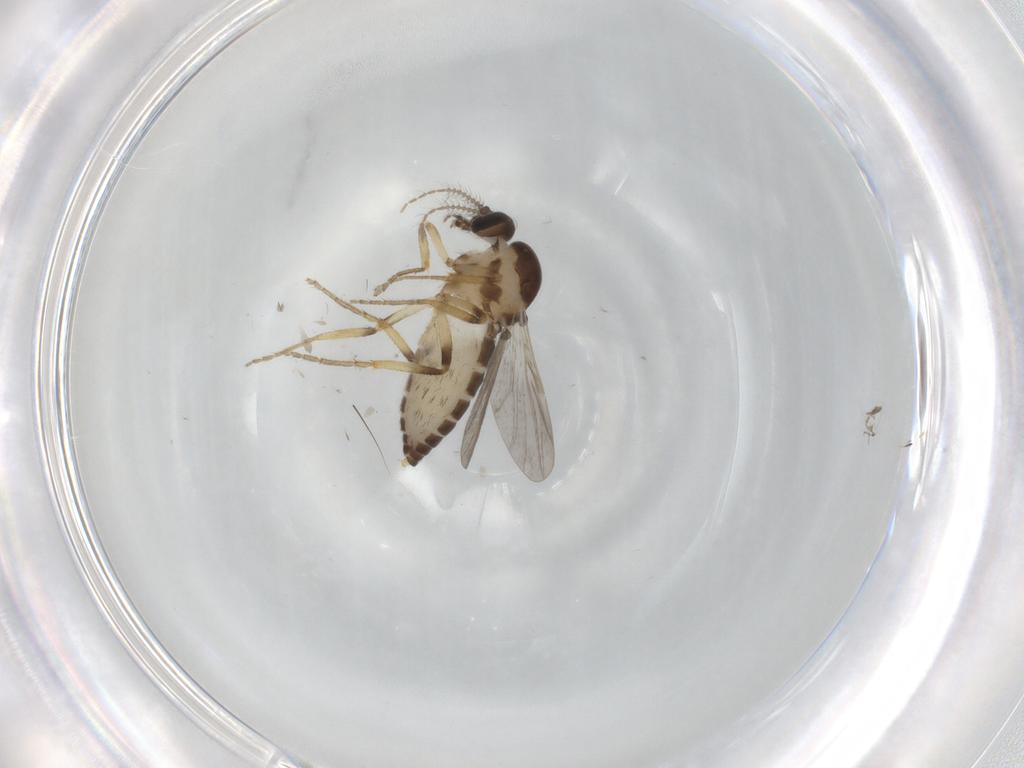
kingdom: Animalia
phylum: Arthropoda
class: Insecta
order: Diptera
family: Ceratopogonidae
